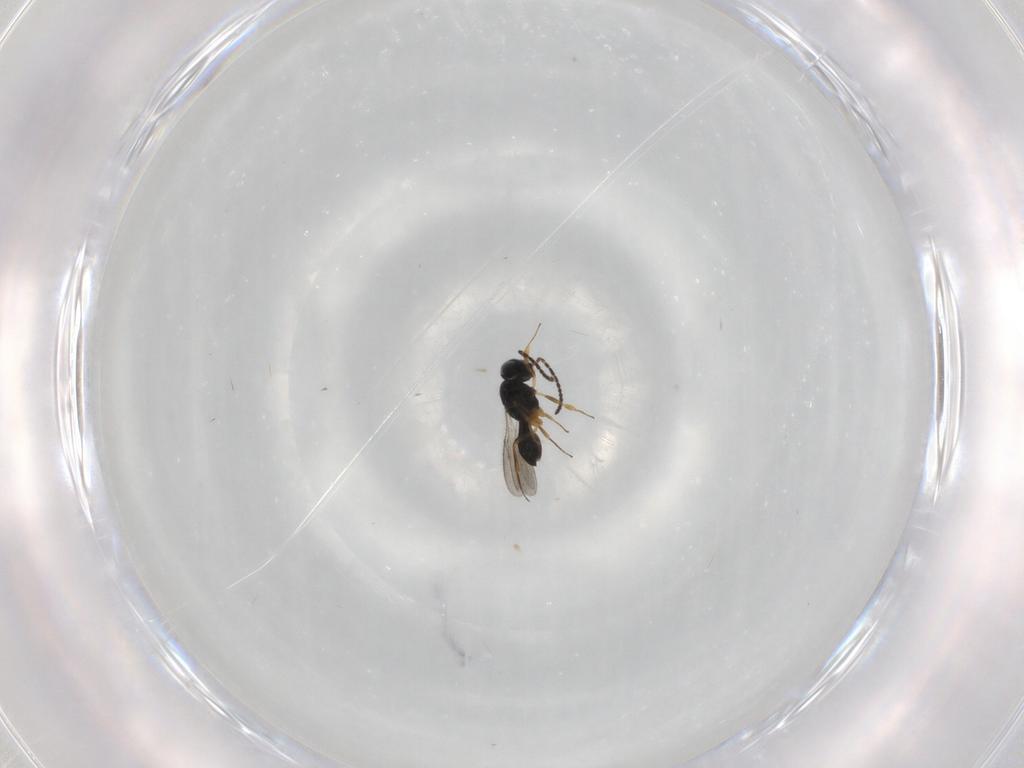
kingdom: Animalia
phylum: Arthropoda
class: Insecta
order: Hymenoptera
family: Scelionidae
